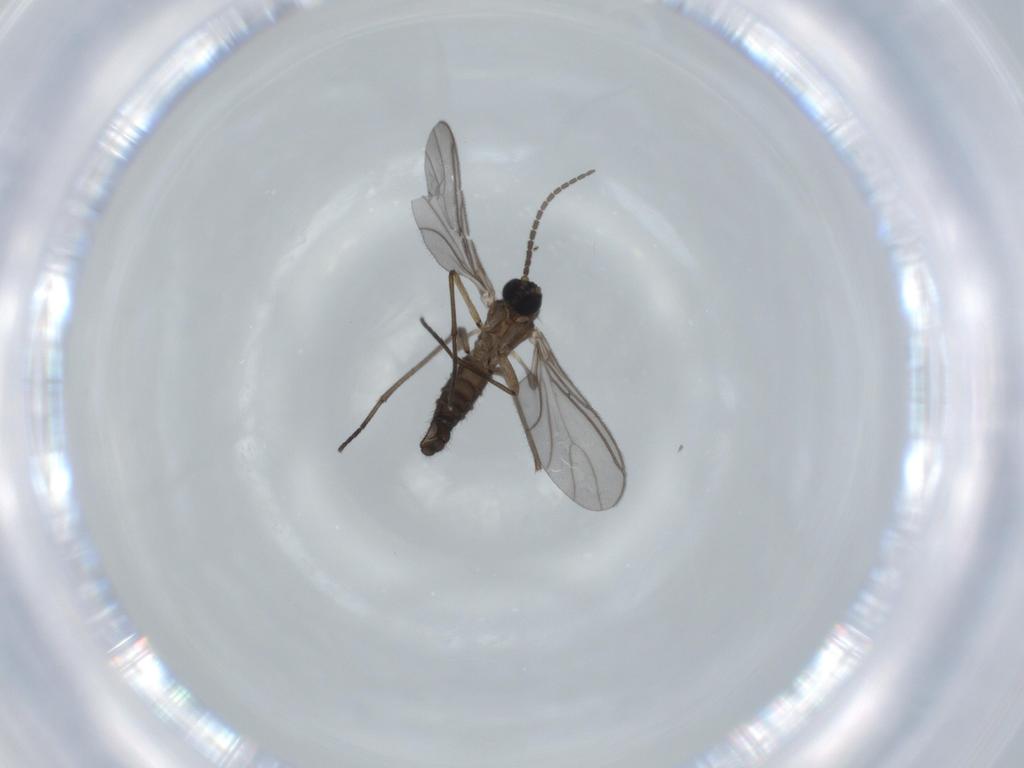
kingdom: Animalia
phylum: Arthropoda
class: Insecta
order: Diptera
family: Sciaridae
